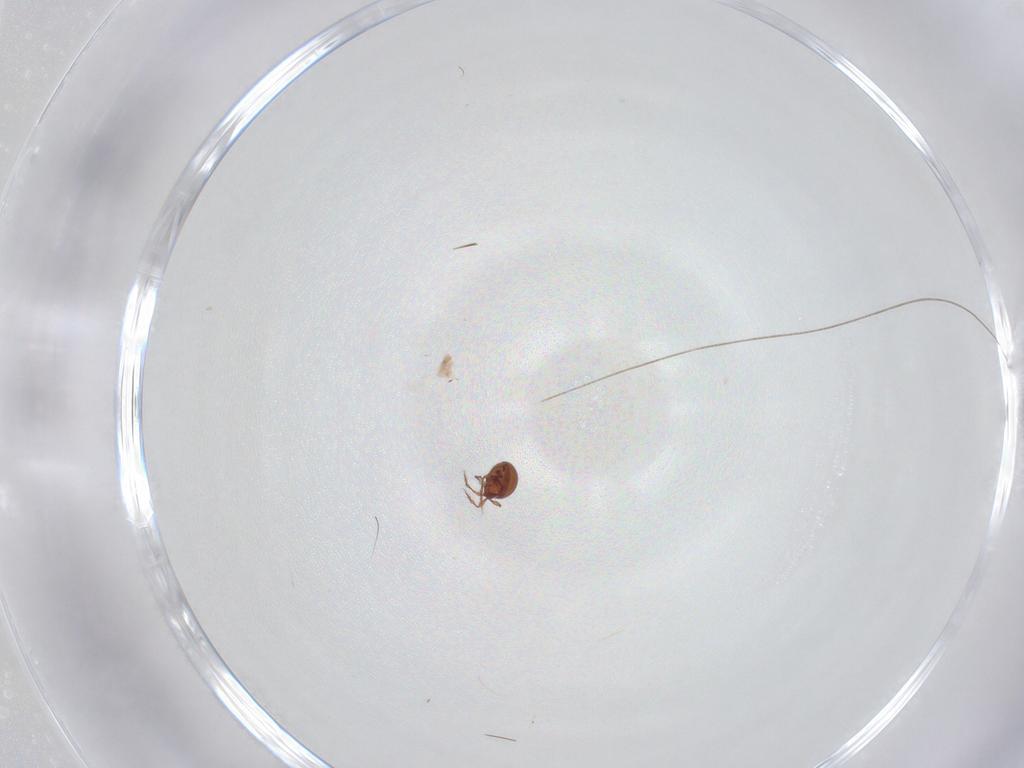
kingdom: Animalia
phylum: Arthropoda
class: Arachnida
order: Sarcoptiformes
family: Oppiidae
